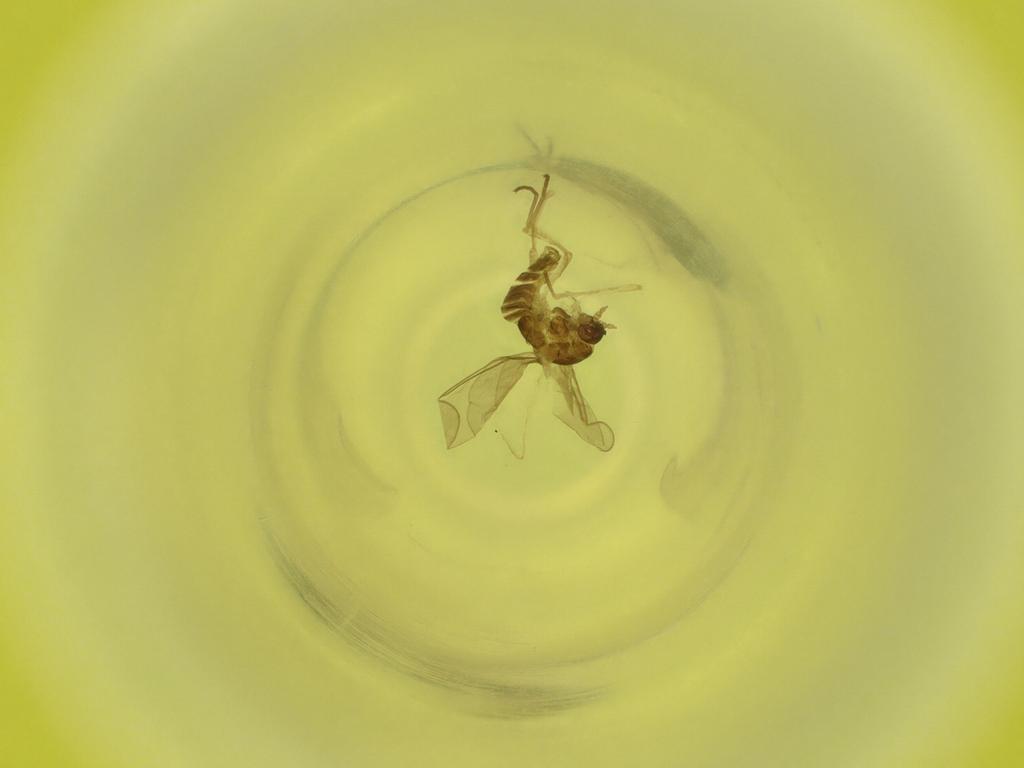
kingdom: Animalia
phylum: Arthropoda
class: Insecta
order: Diptera
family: Cecidomyiidae
